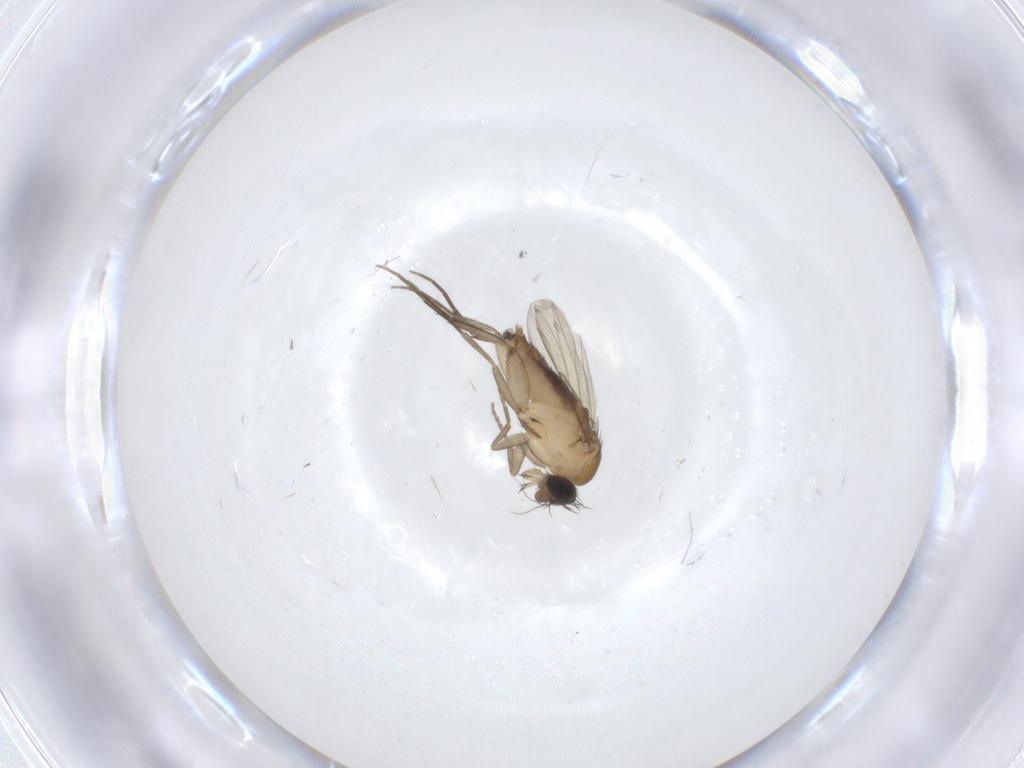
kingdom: Animalia
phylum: Arthropoda
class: Insecta
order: Diptera
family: Phoridae
